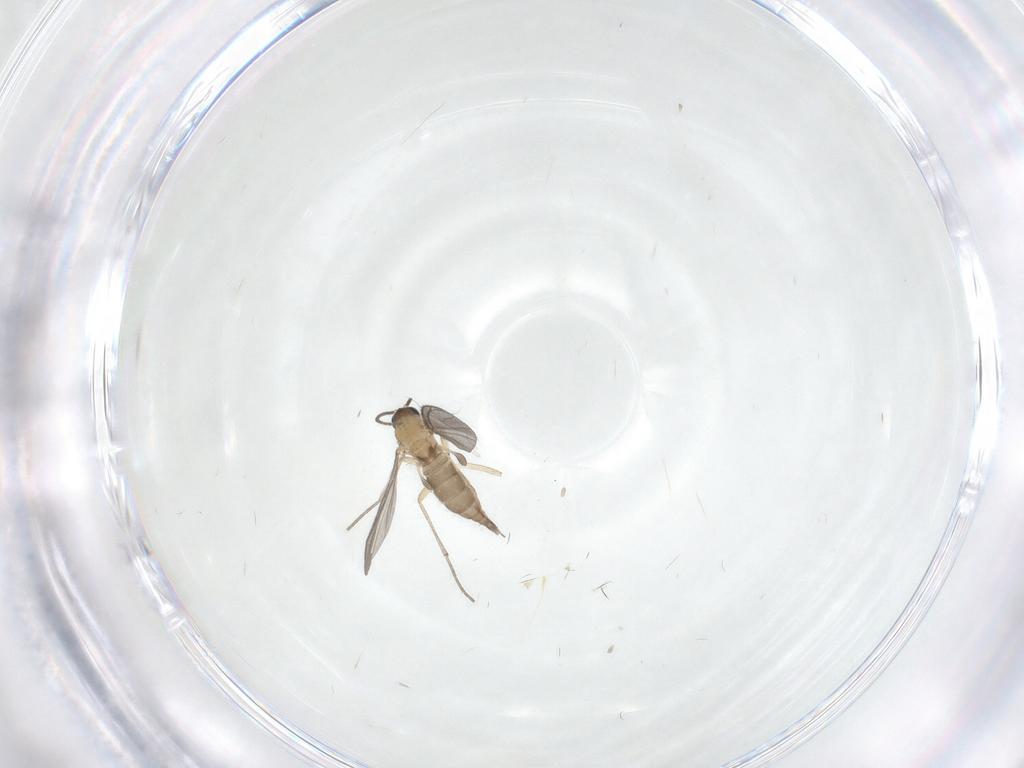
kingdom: Animalia
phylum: Arthropoda
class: Insecta
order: Diptera
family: Sciaridae
